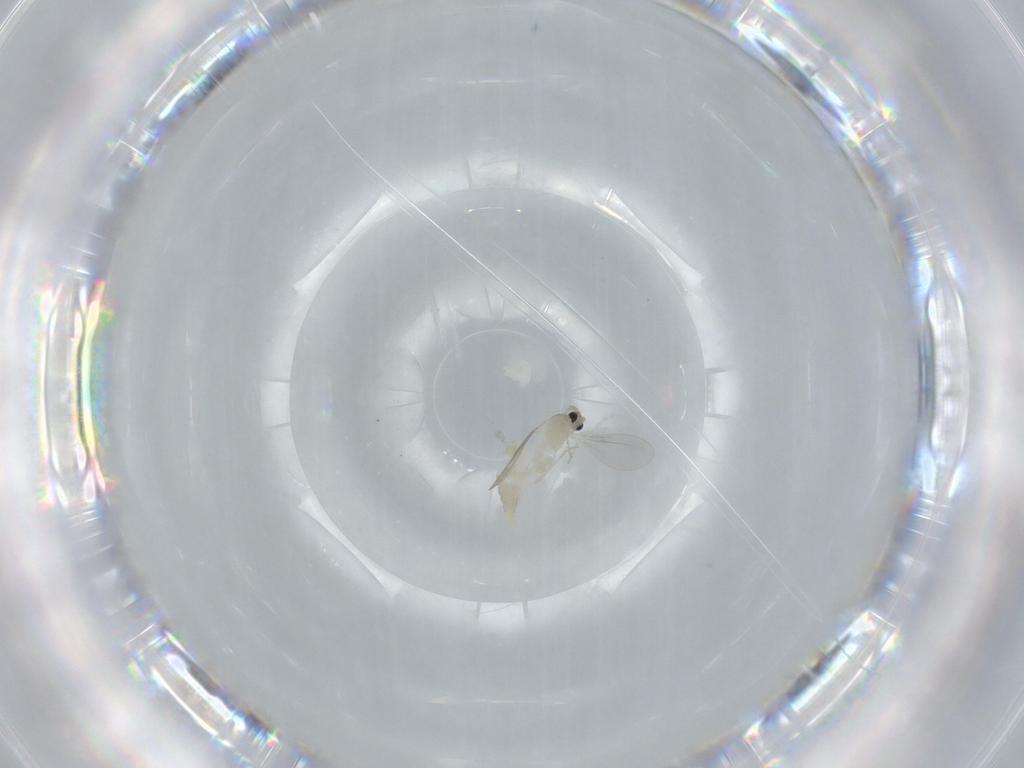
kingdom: Animalia
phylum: Arthropoda
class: Insecta
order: Diptera
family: Cecidomyiidae
